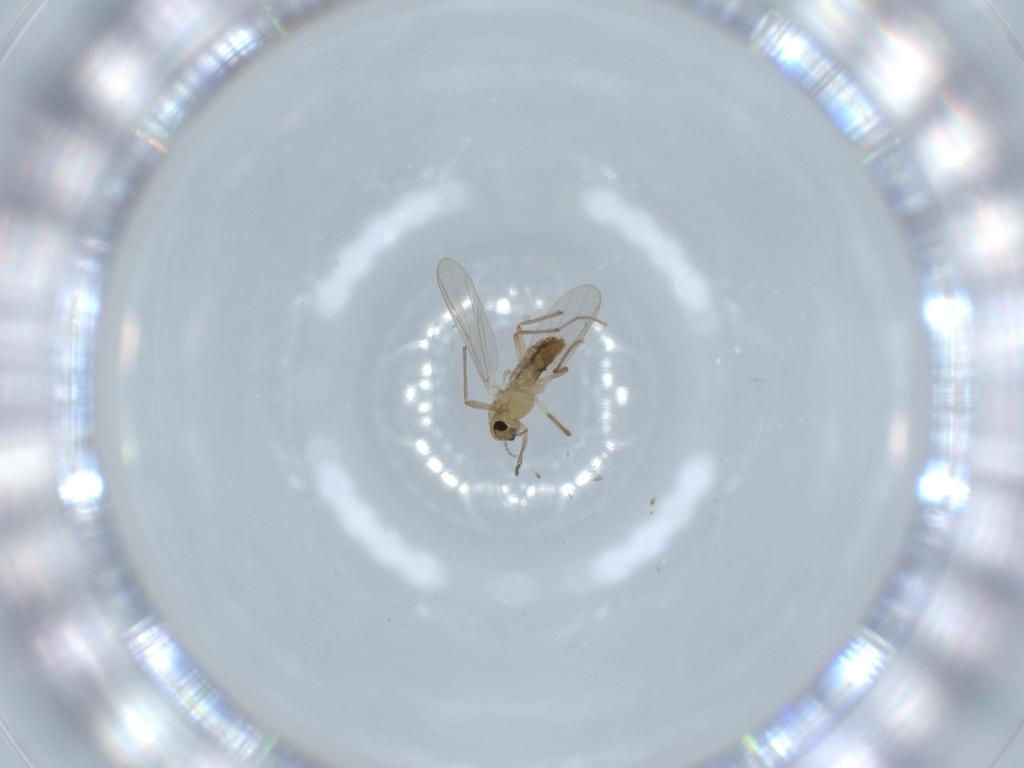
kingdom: Animalia
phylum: Arthropoda
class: Insecta
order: Diptera
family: Chironomidae
